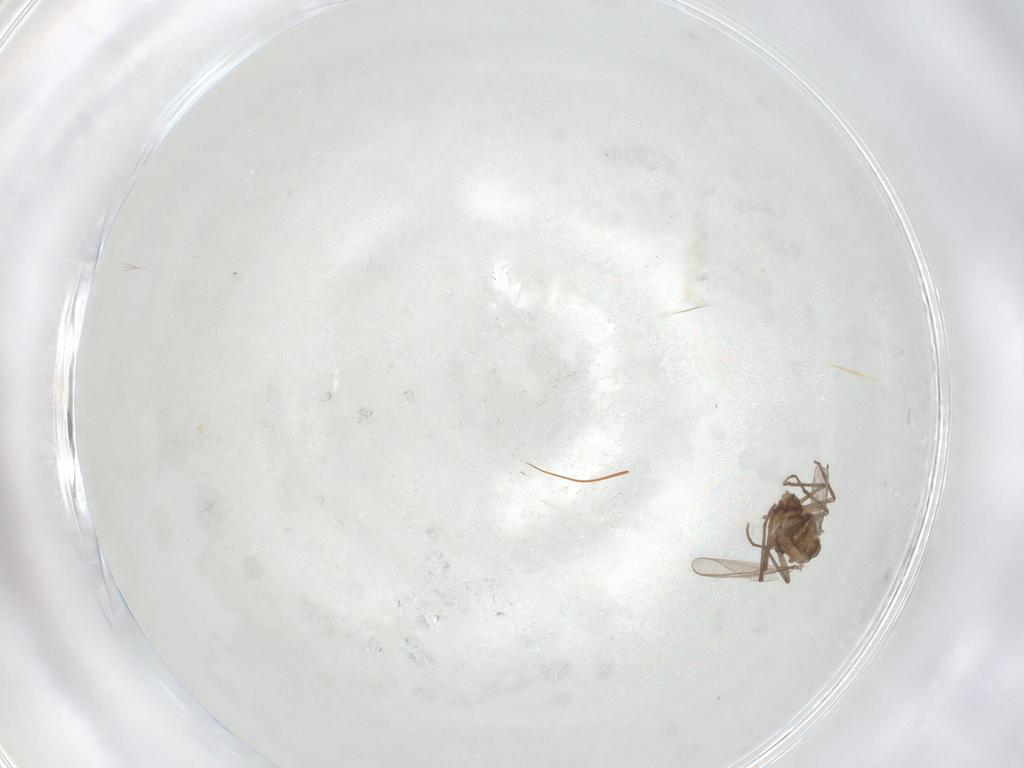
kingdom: Animalia
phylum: Arthropoda
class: Insecta
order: Diptera
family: Chironomidae
